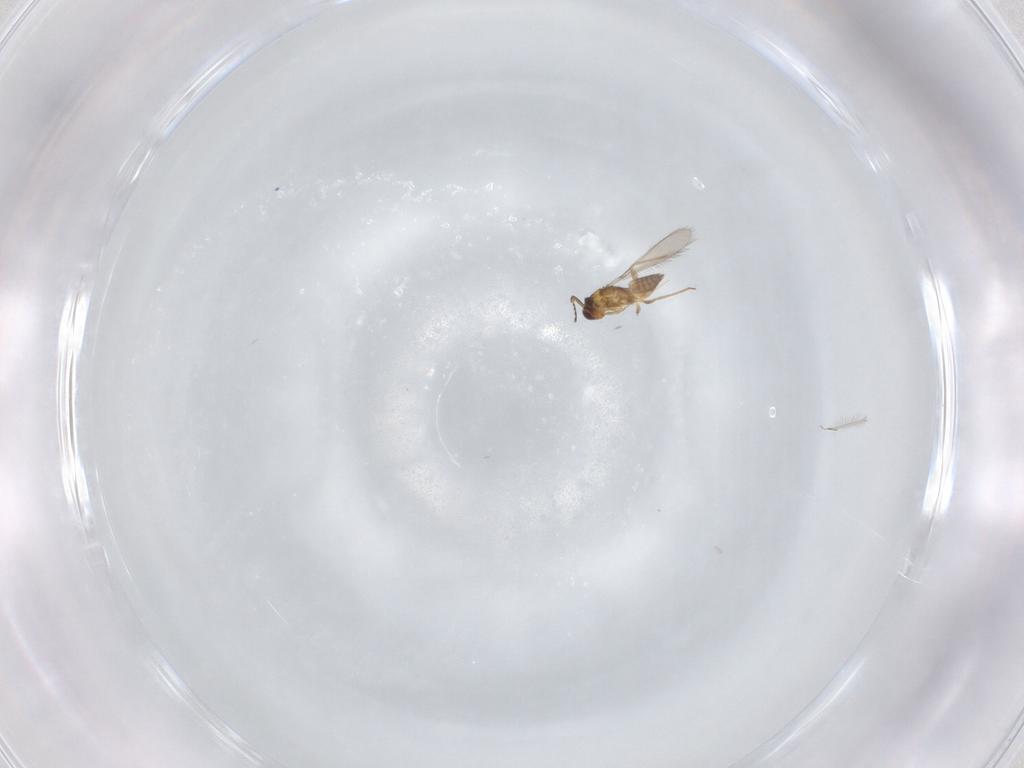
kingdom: Animalia
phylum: Arthropoda
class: Insecta
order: Hymenoptera
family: Mymaridae
